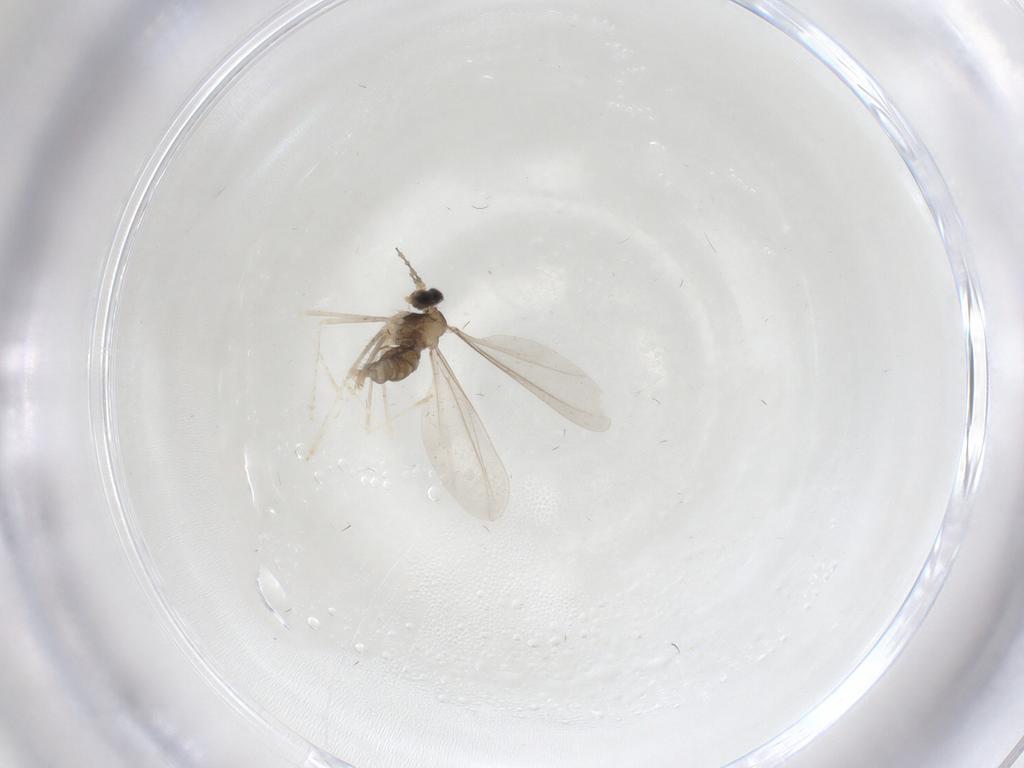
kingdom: Animalia
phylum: Arthropoda
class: Insecta
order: Diptera
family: Cecidomyiidae
